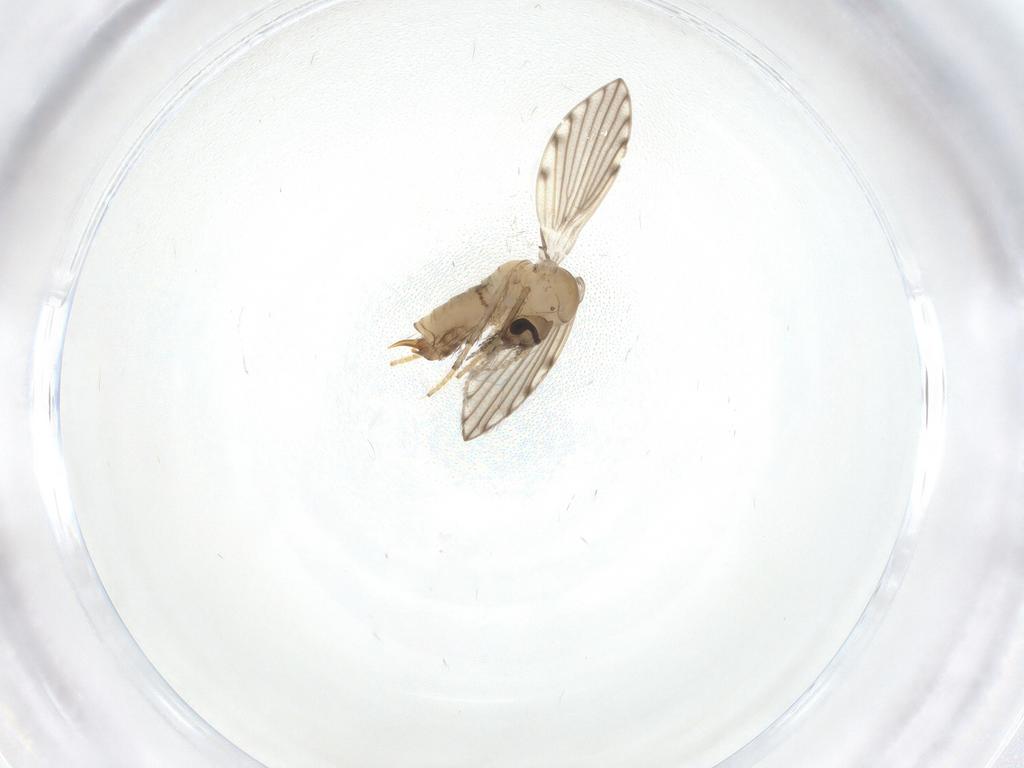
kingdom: Animalia
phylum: Arthropoda
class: Insecta
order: Diptera
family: Psychodidae
